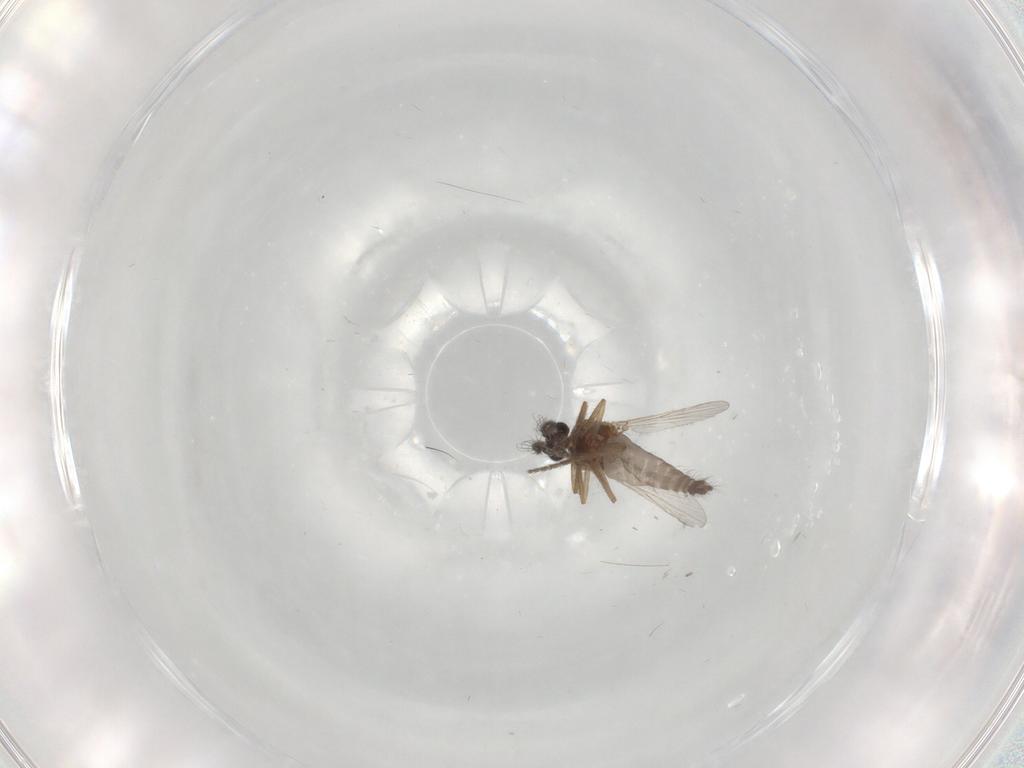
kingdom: Animalia
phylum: Arthropoda
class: Insecta
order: Diptera
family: Ceratopogonidae
